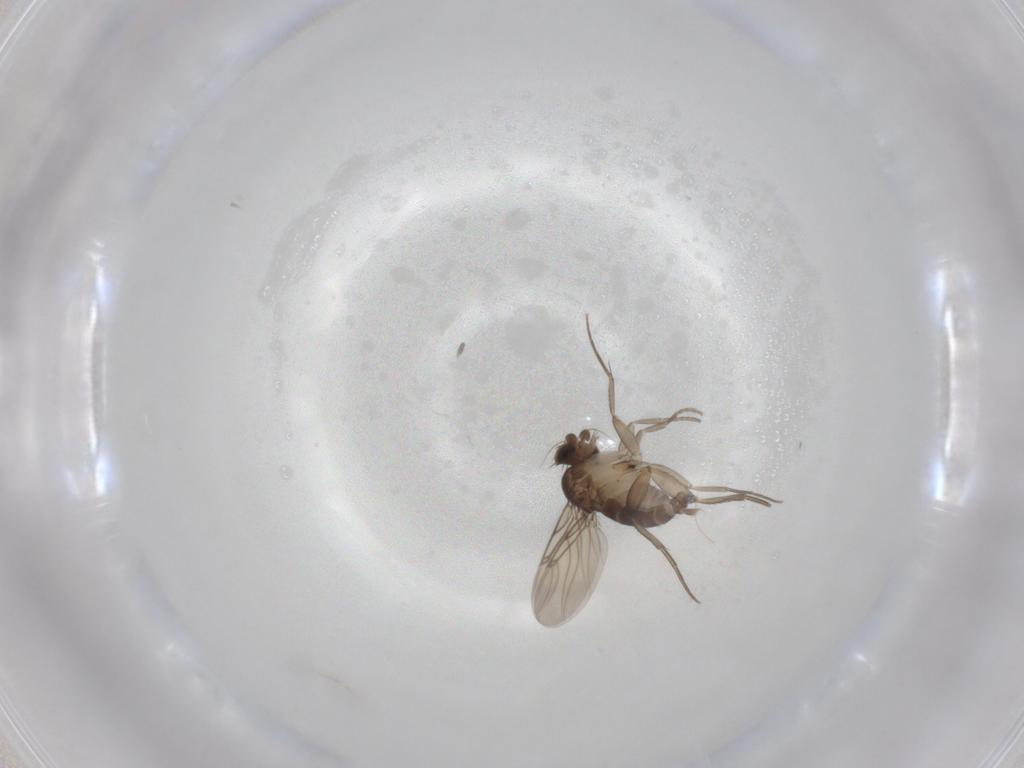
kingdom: Animalia
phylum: Arthropoda
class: Insecta
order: Diptera
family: Phoridae
